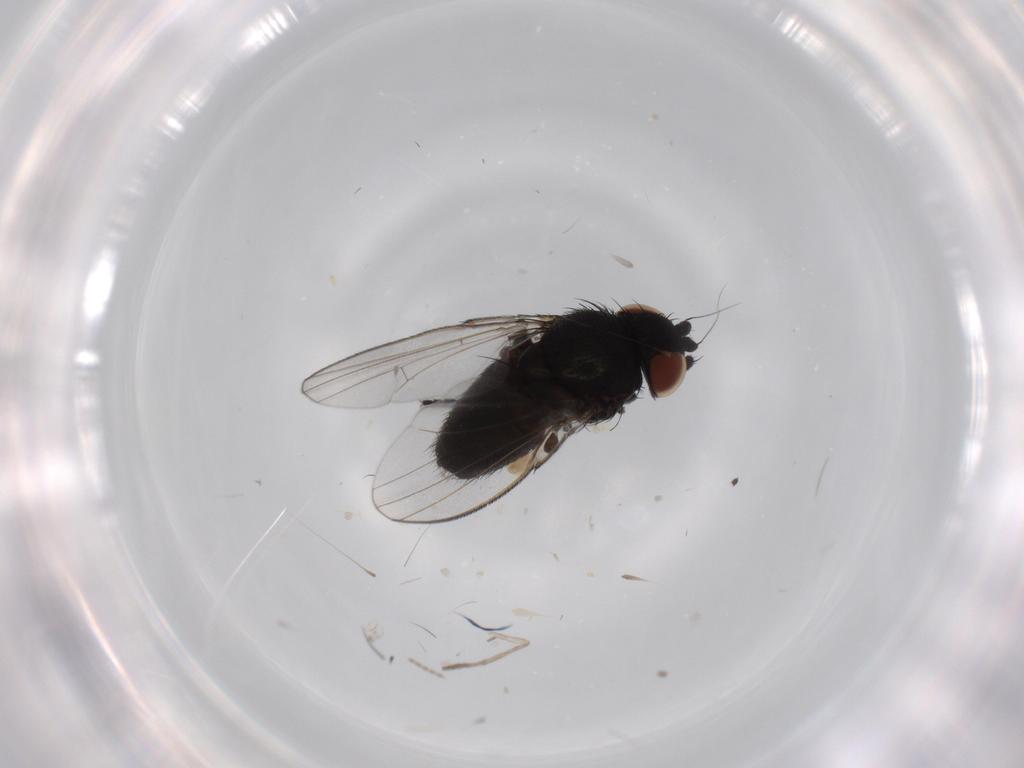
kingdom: Animalia
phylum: Arthropoda
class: Insecta
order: Diptera
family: Milichiidae
